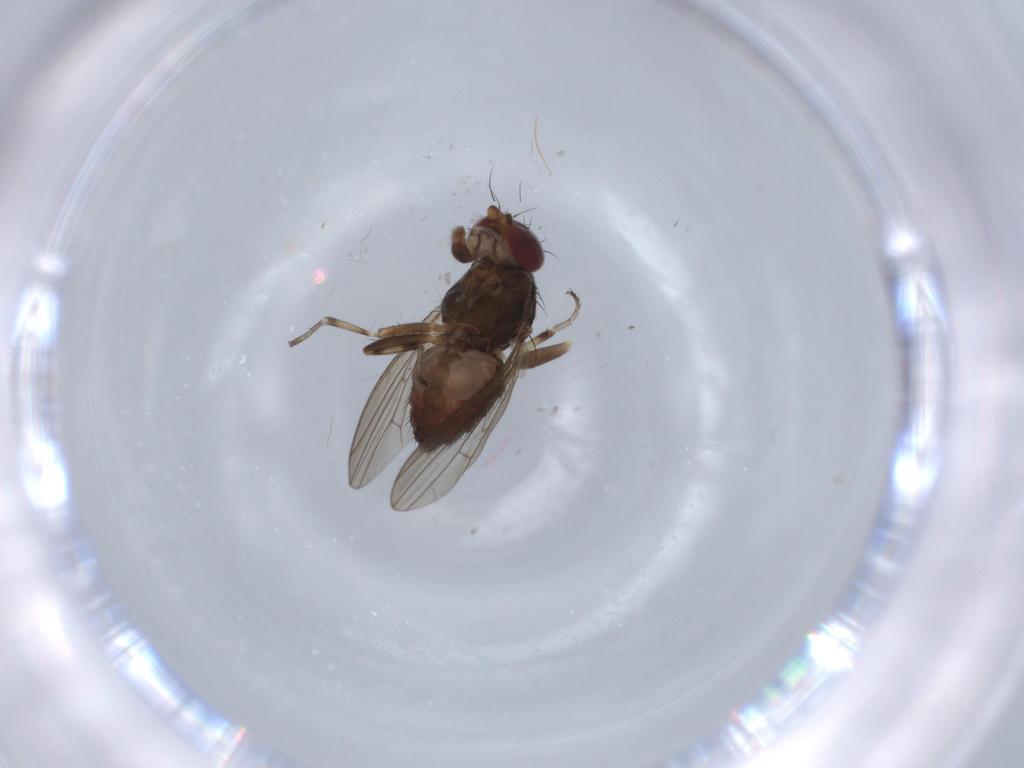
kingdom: Animalia
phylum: Arthropoda
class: Insecta
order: Diptera
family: Heleomyzidae
